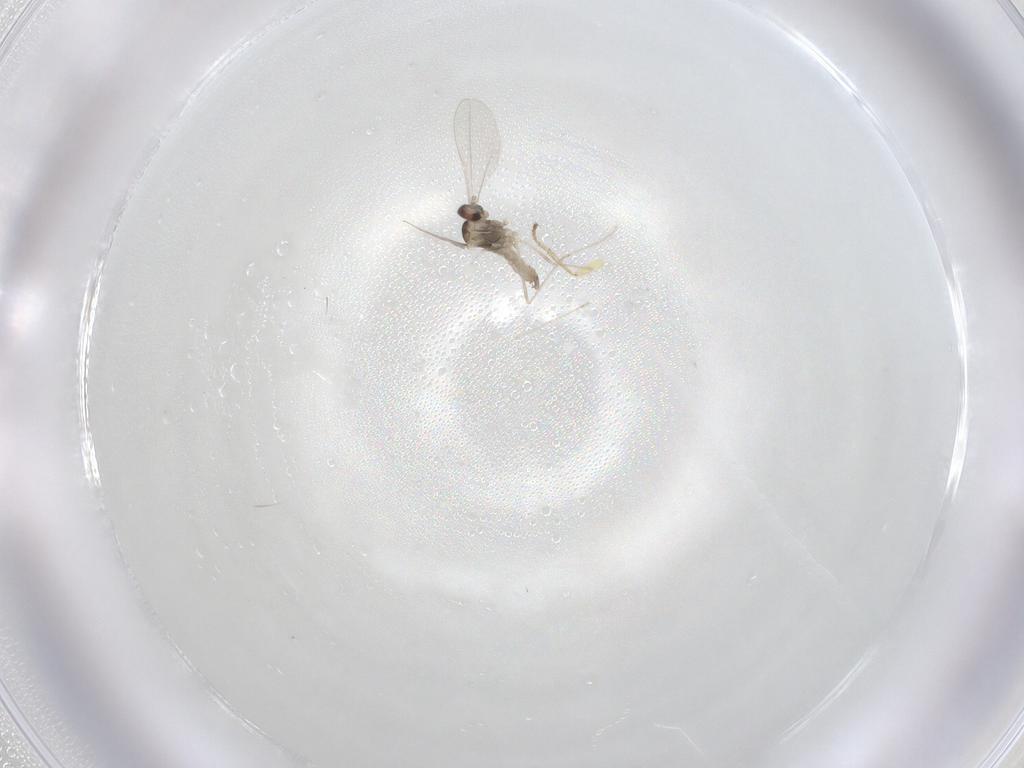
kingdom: Animalia
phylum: Arthropoda
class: Insecta
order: Diptera
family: Cecidomyiidae
